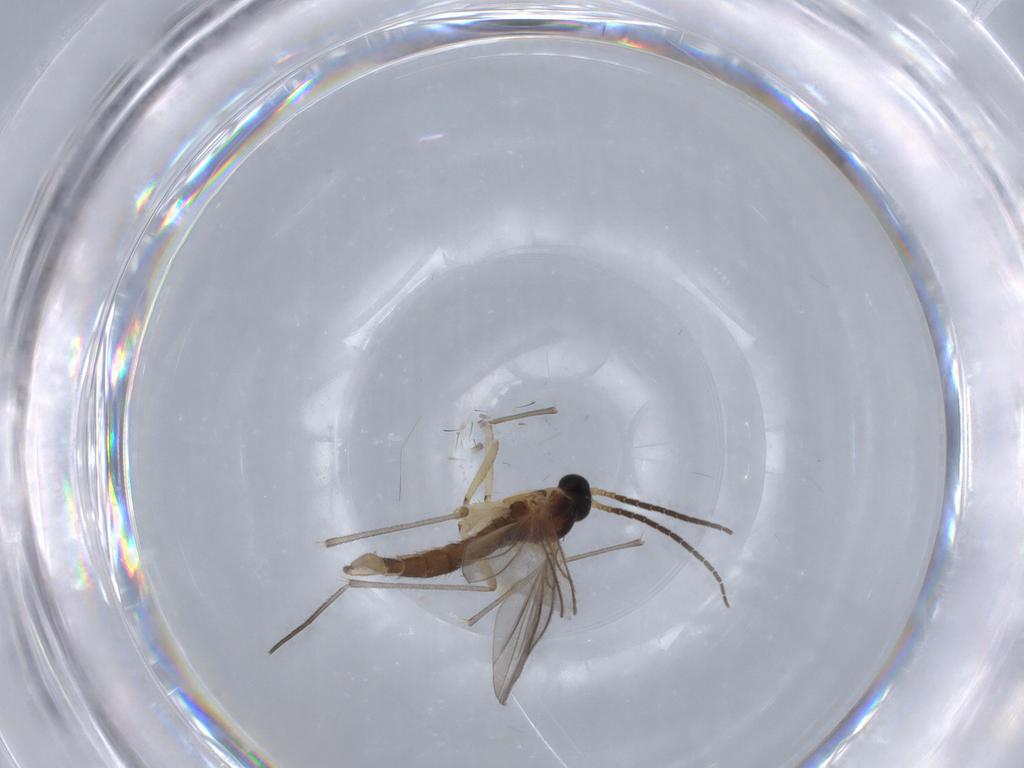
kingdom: Animalia
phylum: Arthropoda
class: Insecta
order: Diptera
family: Sciaridae
